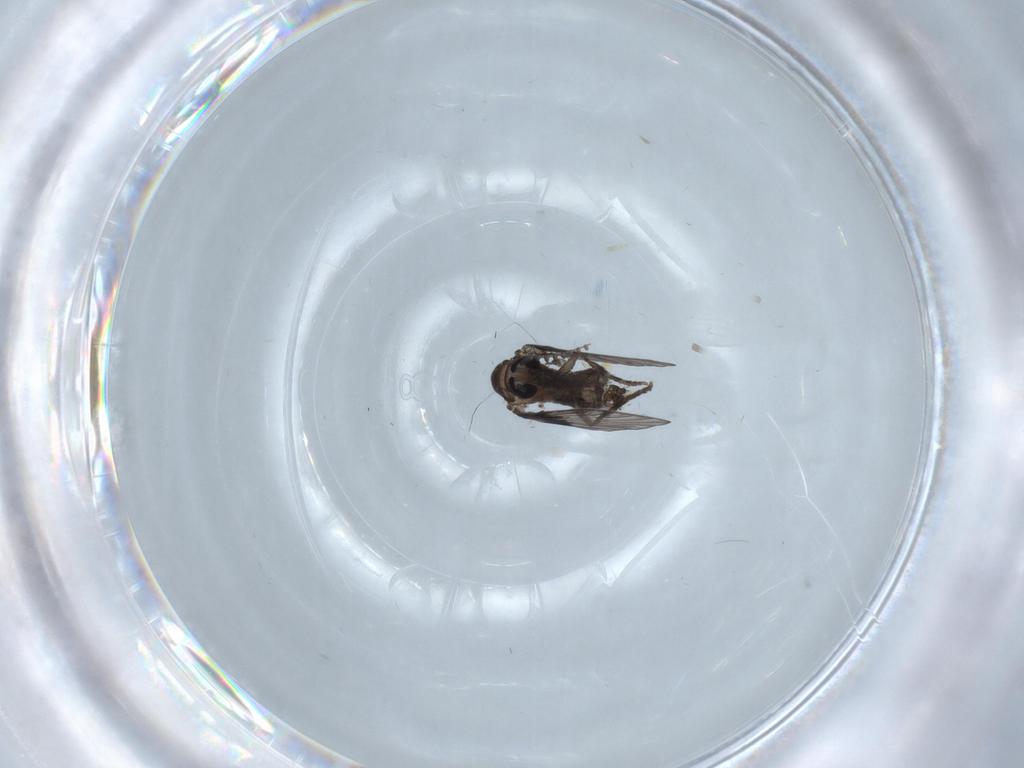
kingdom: Animalia
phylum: Arthropoda
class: Insecta
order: Diptera
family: Psychodidae
